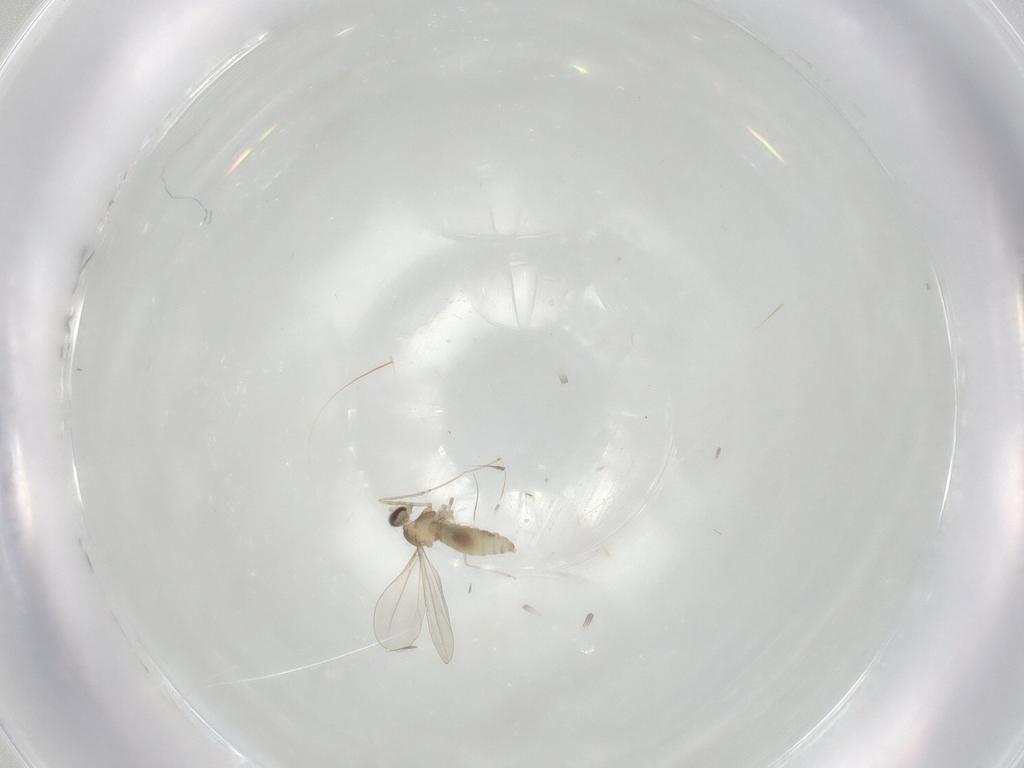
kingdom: Animalia
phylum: Arthropoda
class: Insecta
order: Diptera
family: Cecidomyiidae
